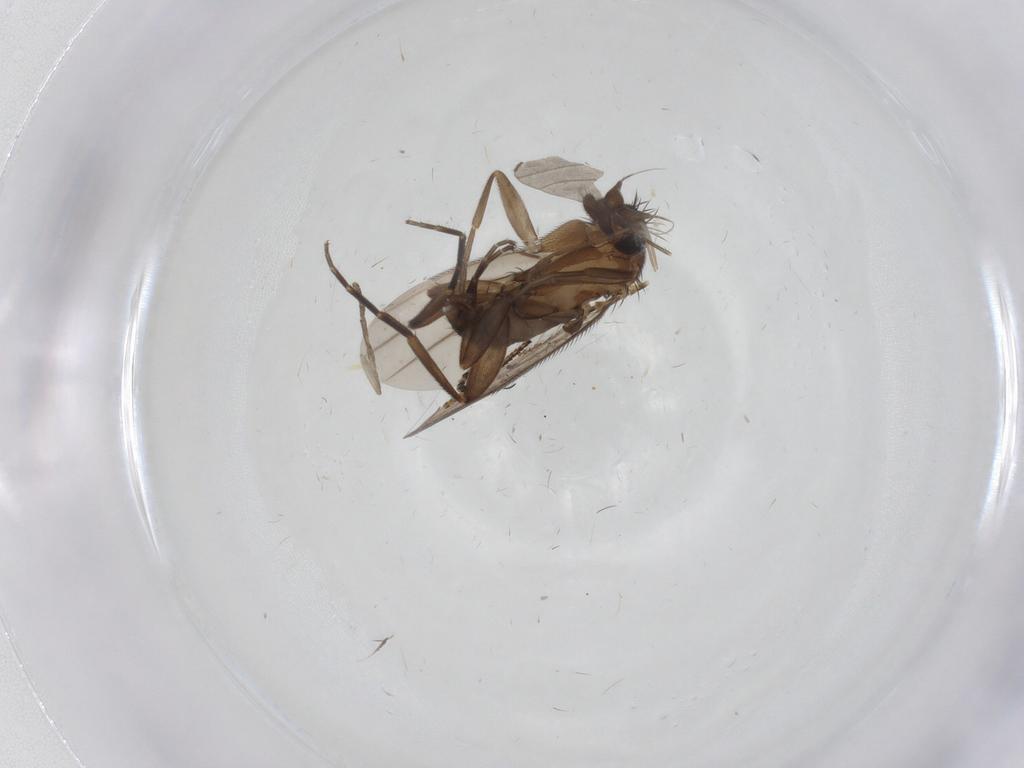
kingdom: Animalia
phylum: Arthropoda
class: Insecta
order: Diptera
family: Phoridae
